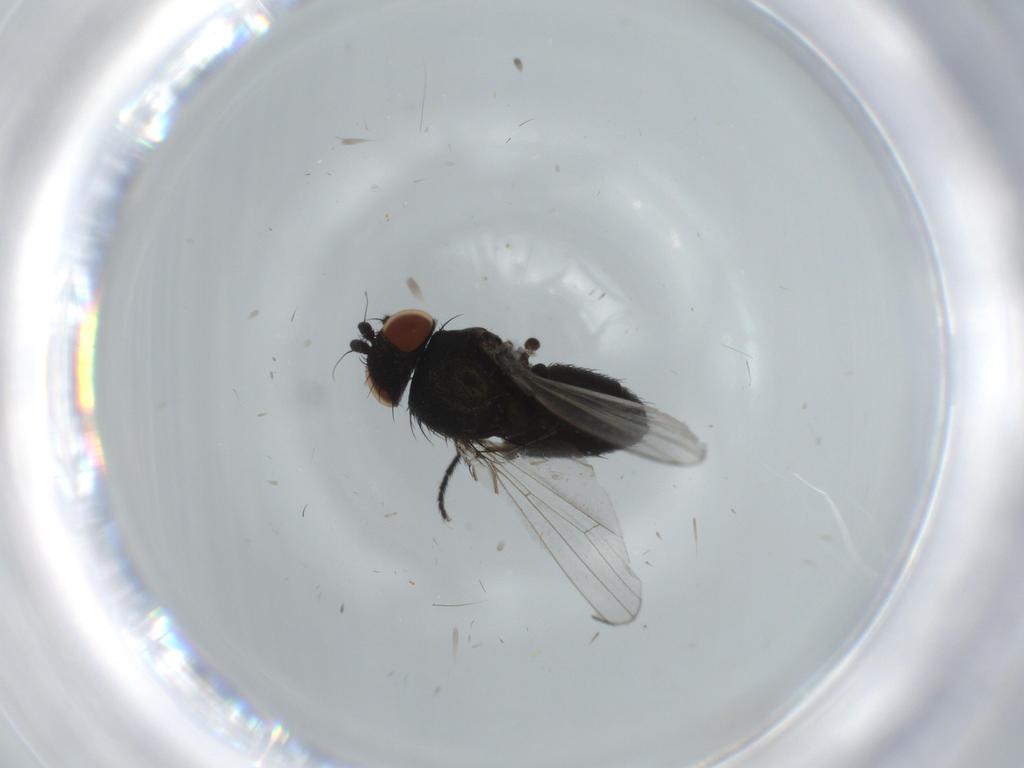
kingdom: Animalia
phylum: Arthropoda
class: Insecta
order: Diptera
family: Milichiidae
